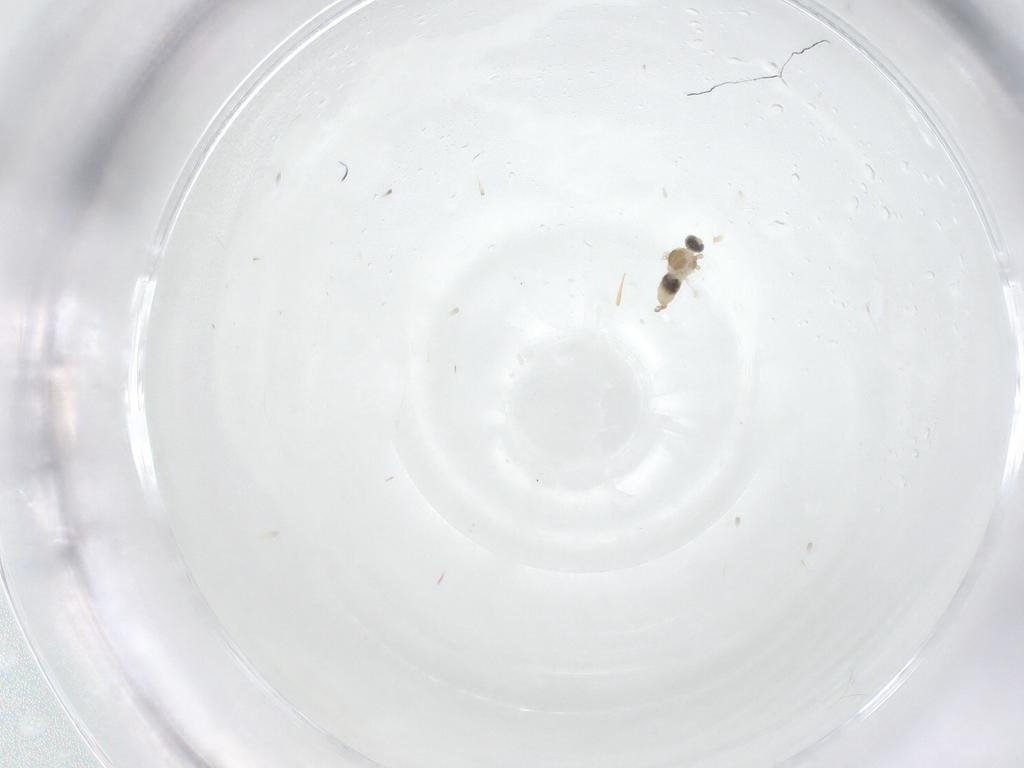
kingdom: Animalia
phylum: Arthropoda
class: Insecta
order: Diptera
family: Cecidomyiidae
